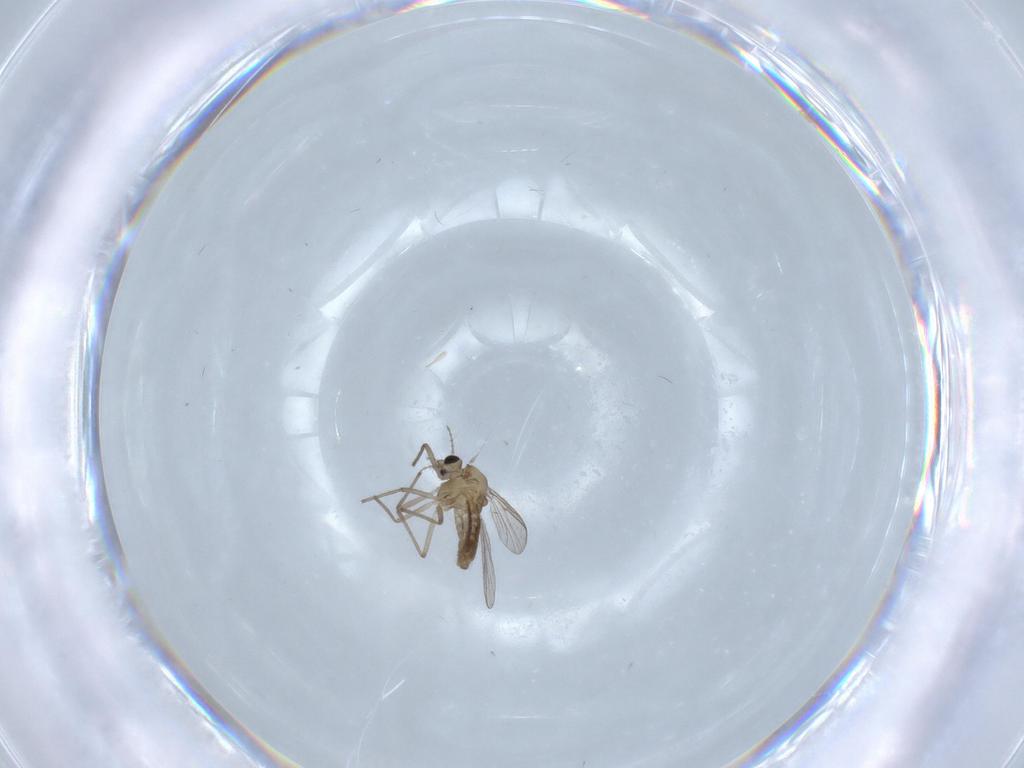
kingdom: Animalia
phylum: Arthropoda
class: Insecta
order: Diptera
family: Chironomidae
